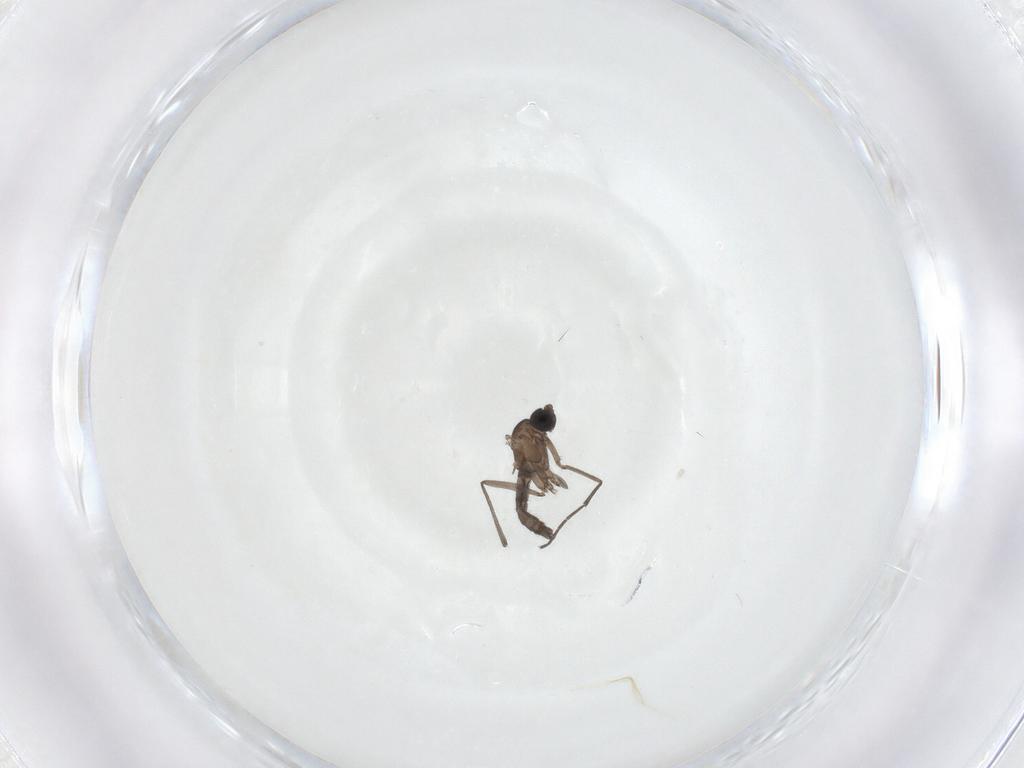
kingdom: Animalia
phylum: Arthropoda
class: Insecta
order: Diptera
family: Sciaridae
